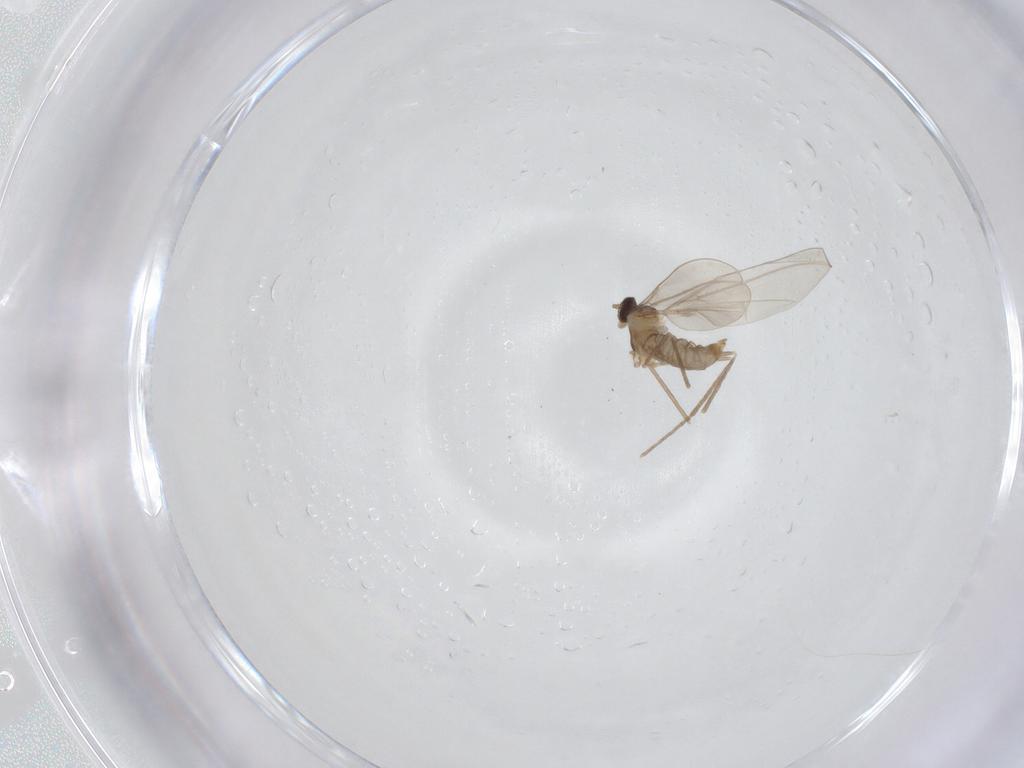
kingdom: Animalia
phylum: Arthropoda
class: Insecta
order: Diptera
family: Cecidomyiidae
